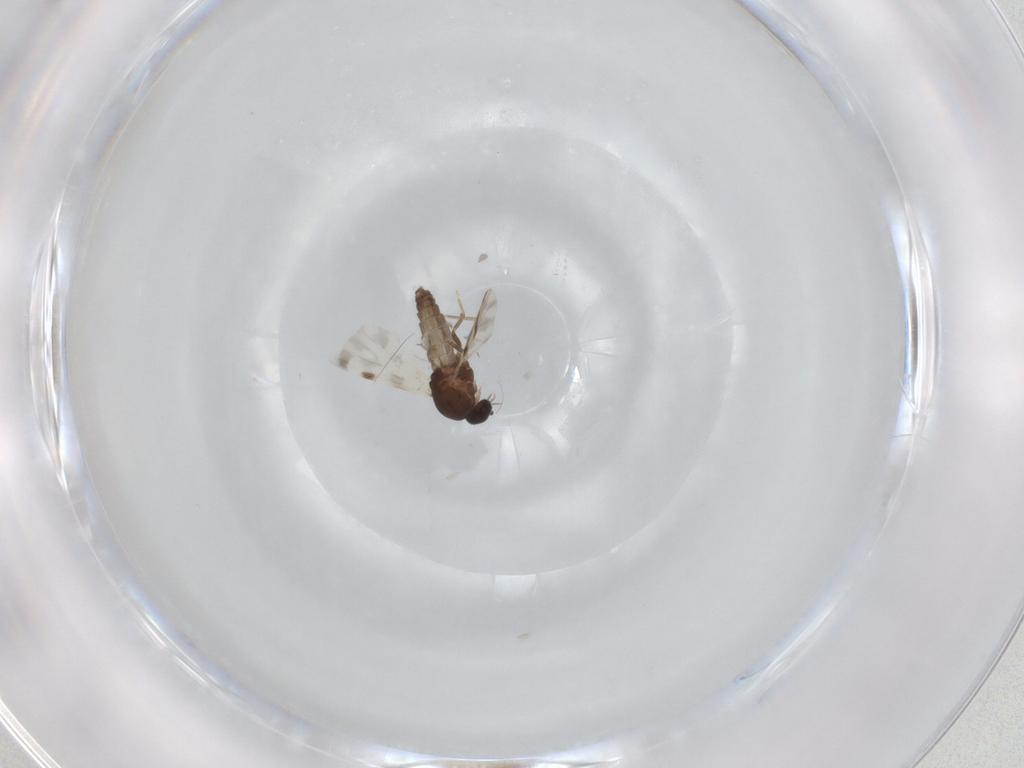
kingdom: Animalia
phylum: Arthropoda
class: Insecta
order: Diptera
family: Ceratopogonidae
